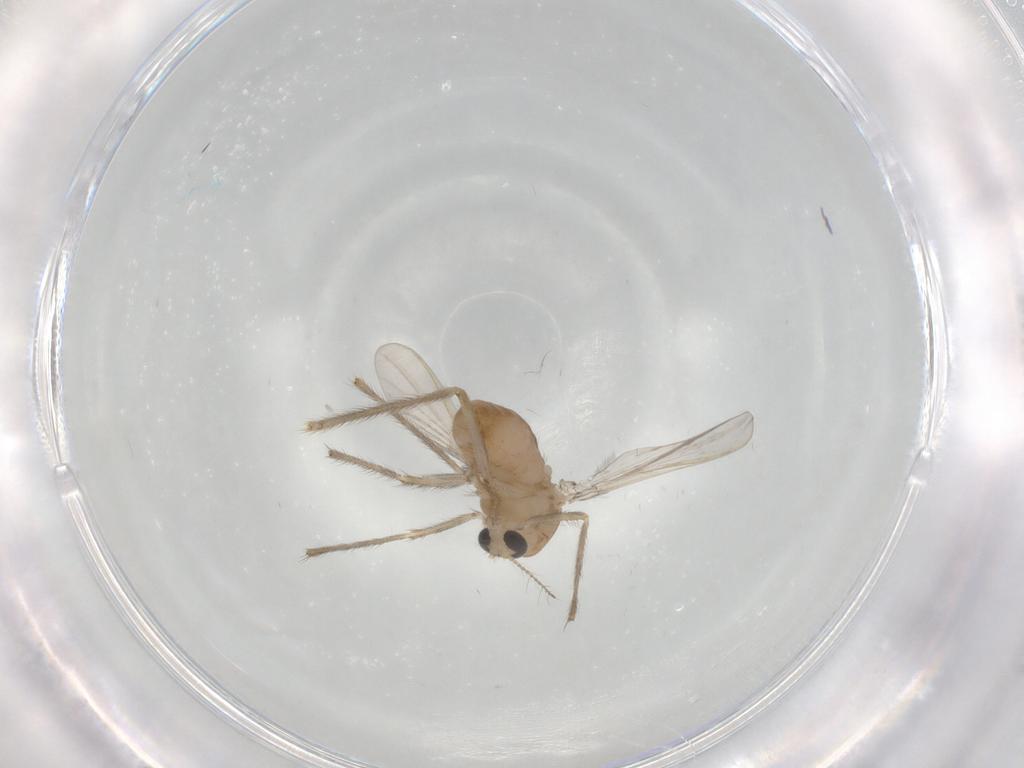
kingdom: Animalia
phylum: Arthropoda
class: Insecta
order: Diptera
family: Chironomidae
